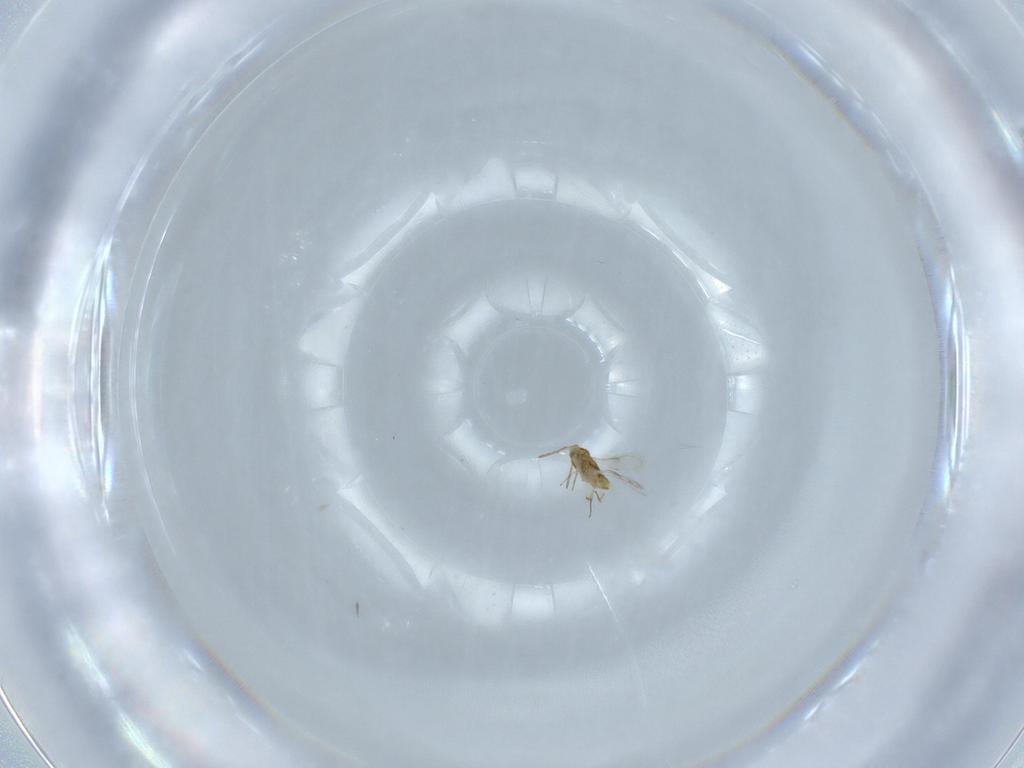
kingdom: Animalia
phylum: Arthropoda
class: Insecta
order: Hymenoptera
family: Aphelinidae
